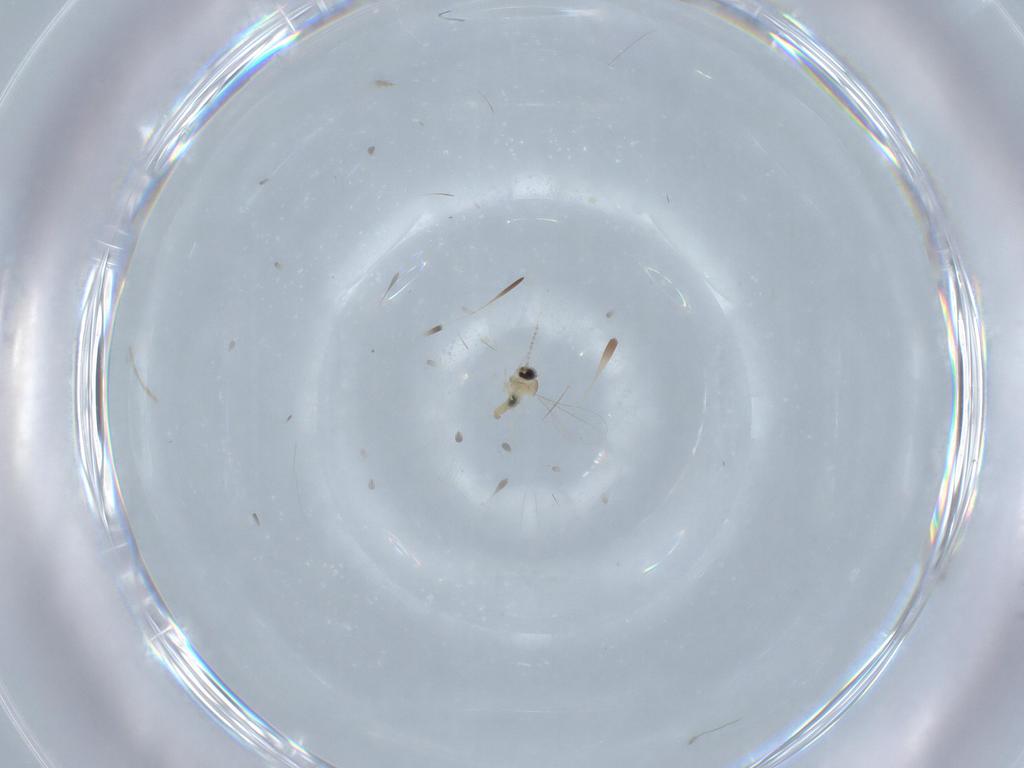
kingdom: Animalia
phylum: Arthropoda
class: Insecta
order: Diptera
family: Cecidomyiidae
